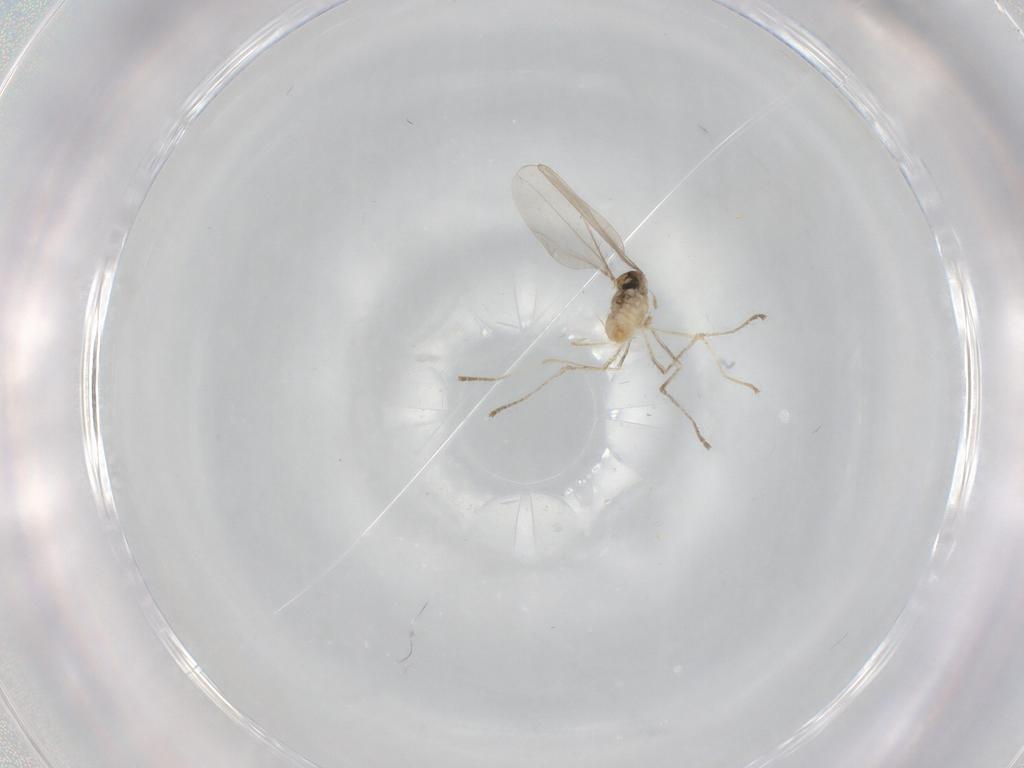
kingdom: Animalia
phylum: Arthropoda
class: Insecta
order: Diptera
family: Cecidomyiidae
